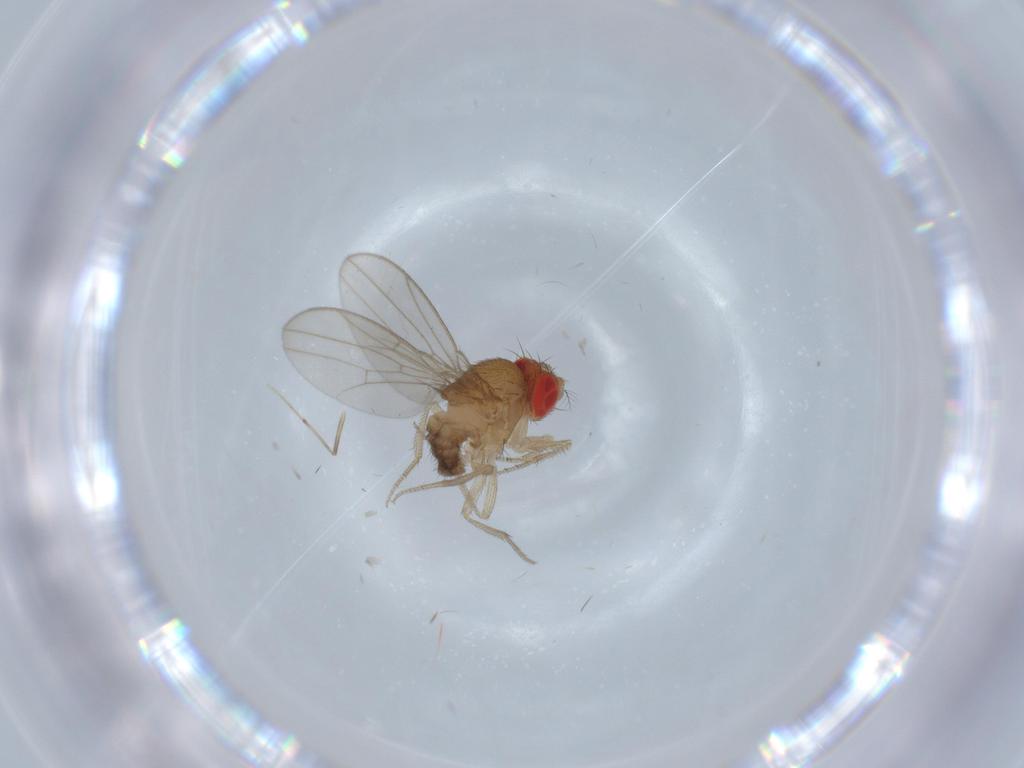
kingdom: Animalia
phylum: Arthropoda
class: Insecta
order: Diptera
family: Drosophilidae
